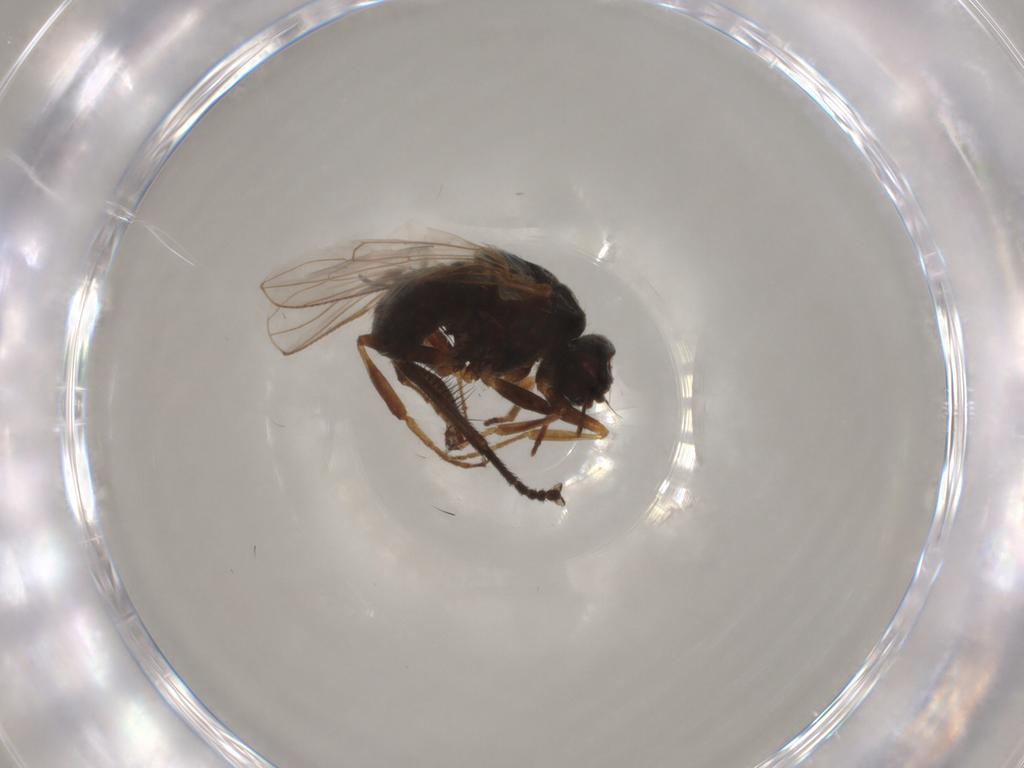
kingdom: Animalia
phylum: Arthropoda
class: Insecta
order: Diptera
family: Muscidae
